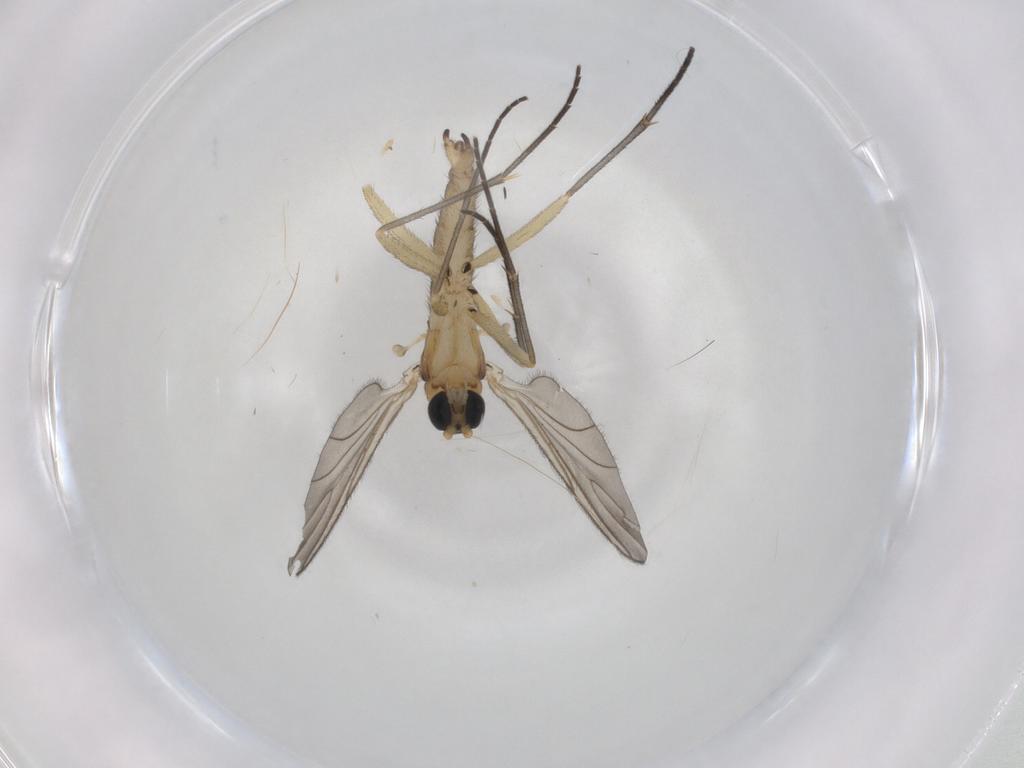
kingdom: Animalia
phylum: Arthropoda
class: Insecta
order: Diptera
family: Sciaridae
